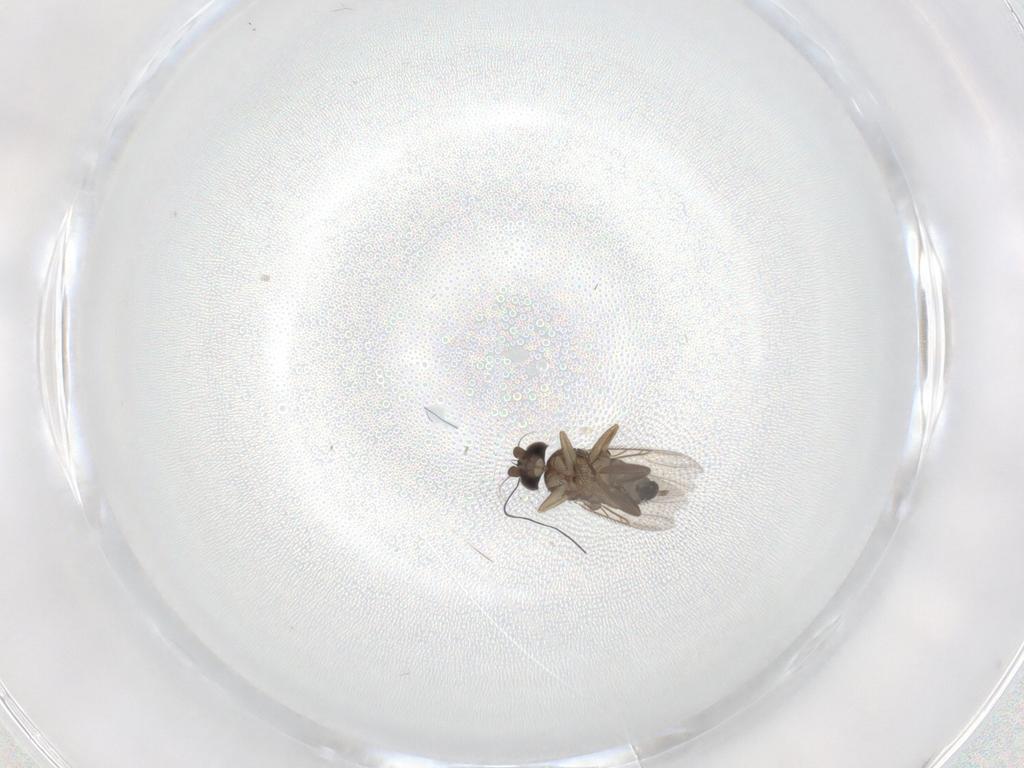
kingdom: Animalia
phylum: Arthropoda
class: Insecta
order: Diptera
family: Phoridae
